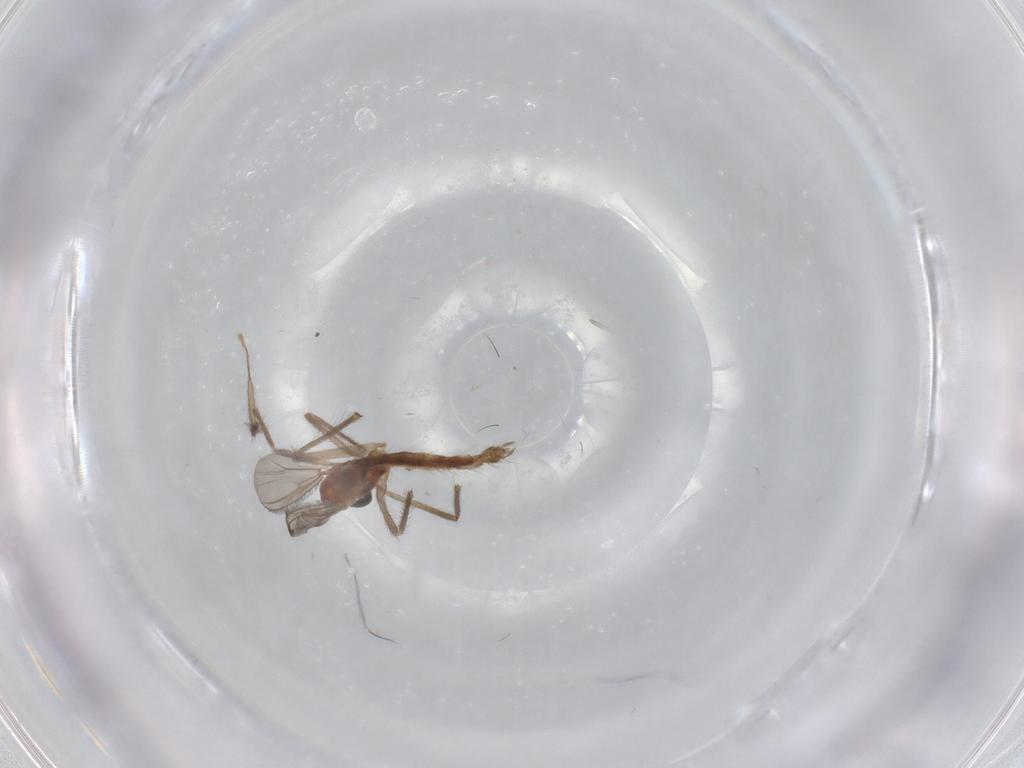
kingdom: Animalia
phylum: Arthropoda
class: Insecta
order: Diptera
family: Chironomidae
